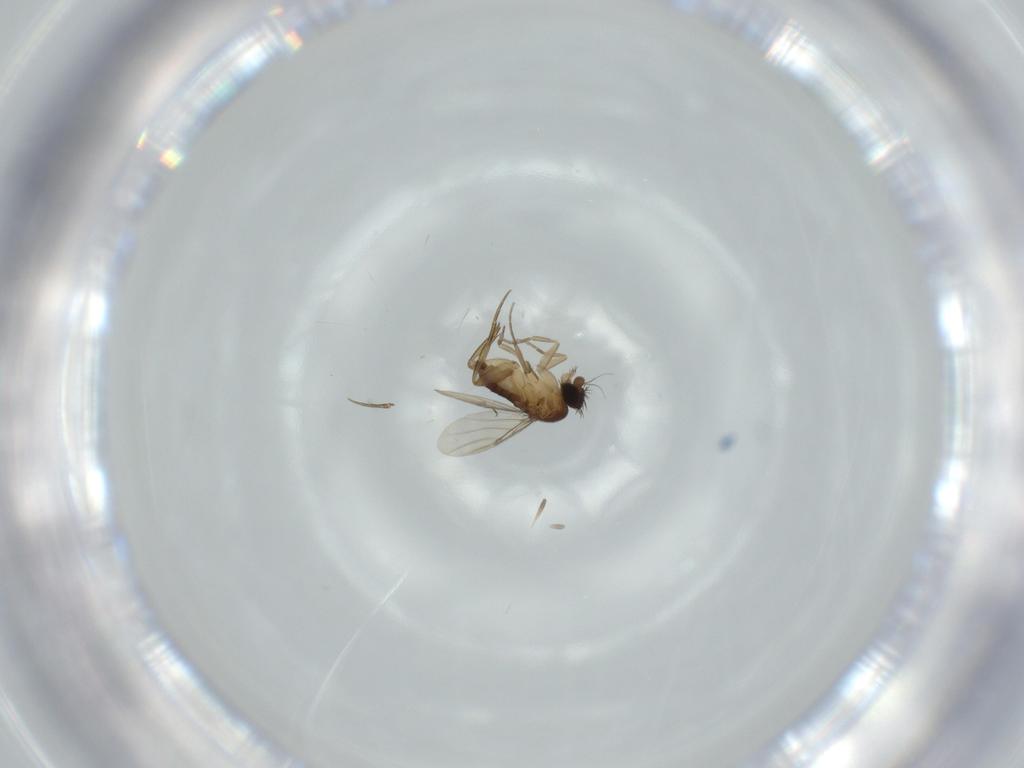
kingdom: Animalia
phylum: Arthropoda
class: Insecta
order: Diptera
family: Phoridae
